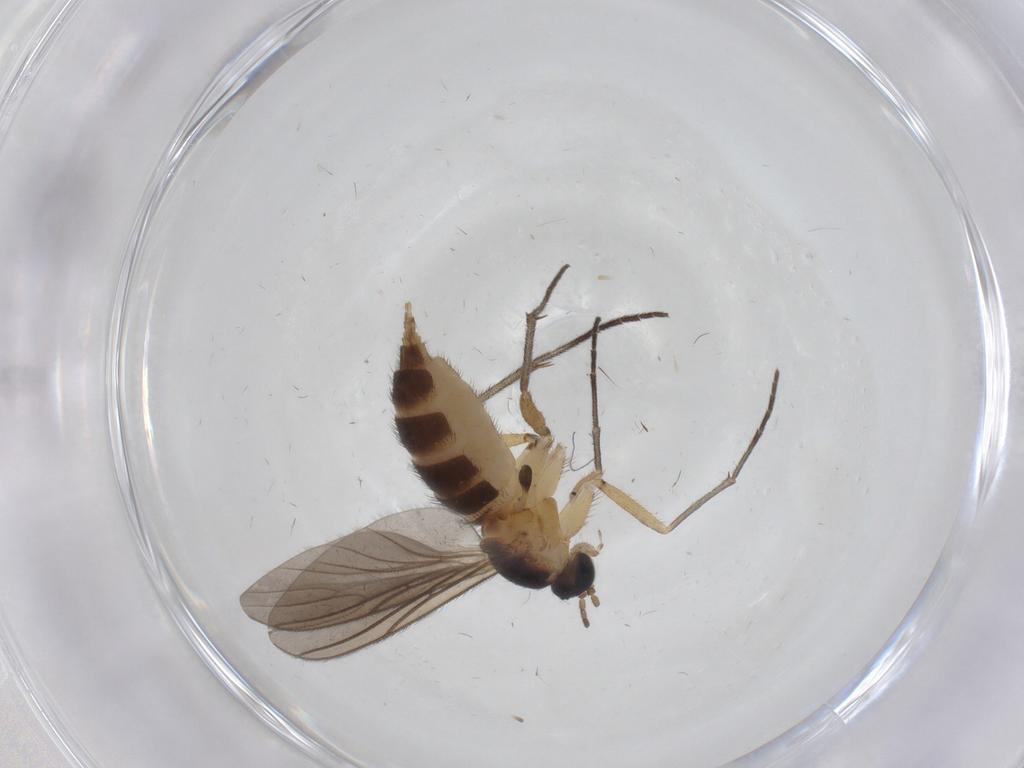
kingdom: Animalia
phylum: Arthropoda
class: Insecta
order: Diptera
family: Sciaridae
